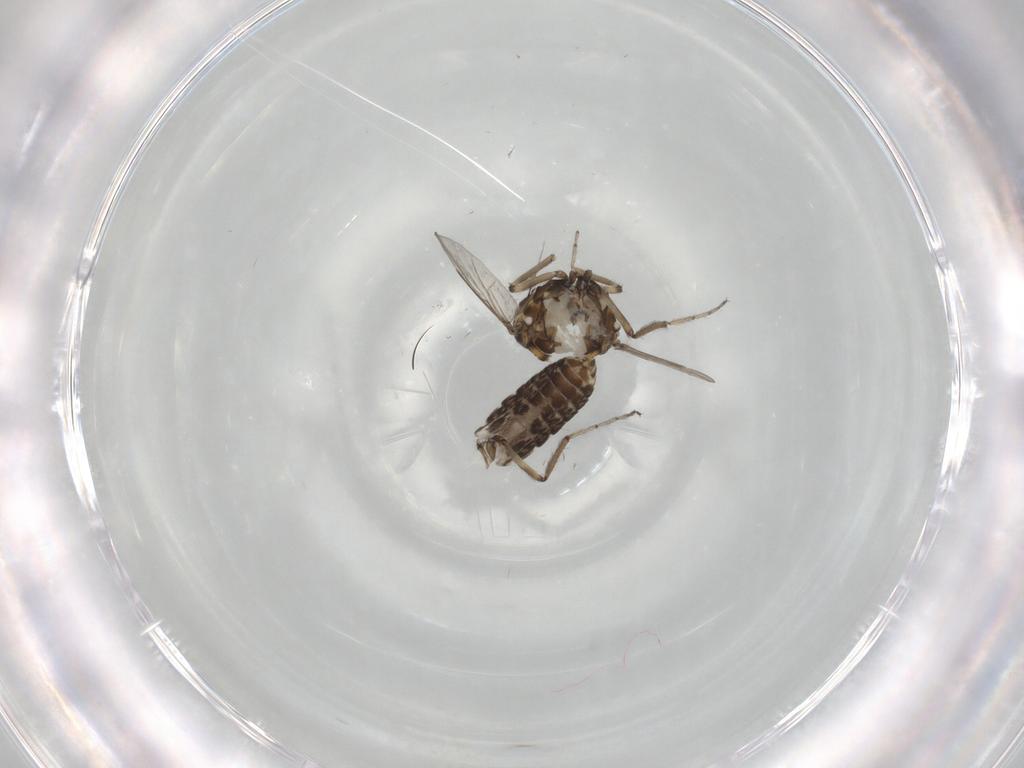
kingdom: Animalia
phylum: Arthropoda
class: Insecta
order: Diptera
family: Ceratopogonidae
